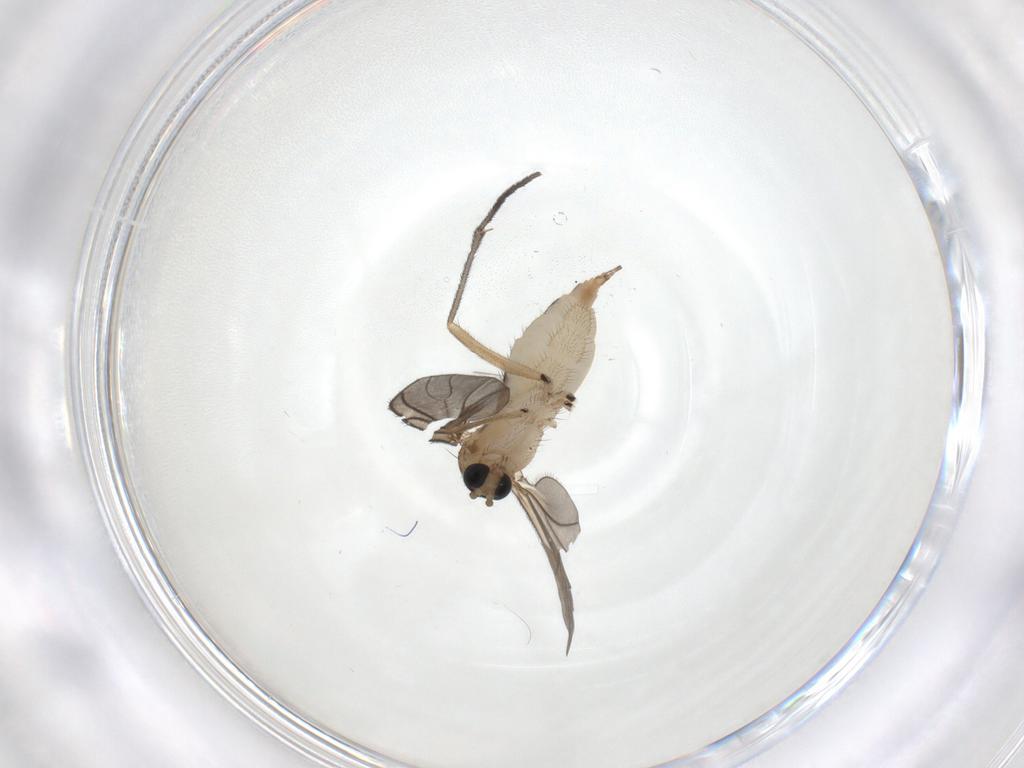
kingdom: Animalia
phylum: Arthropoda
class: Insecta
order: Diptera
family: Sciaridae
